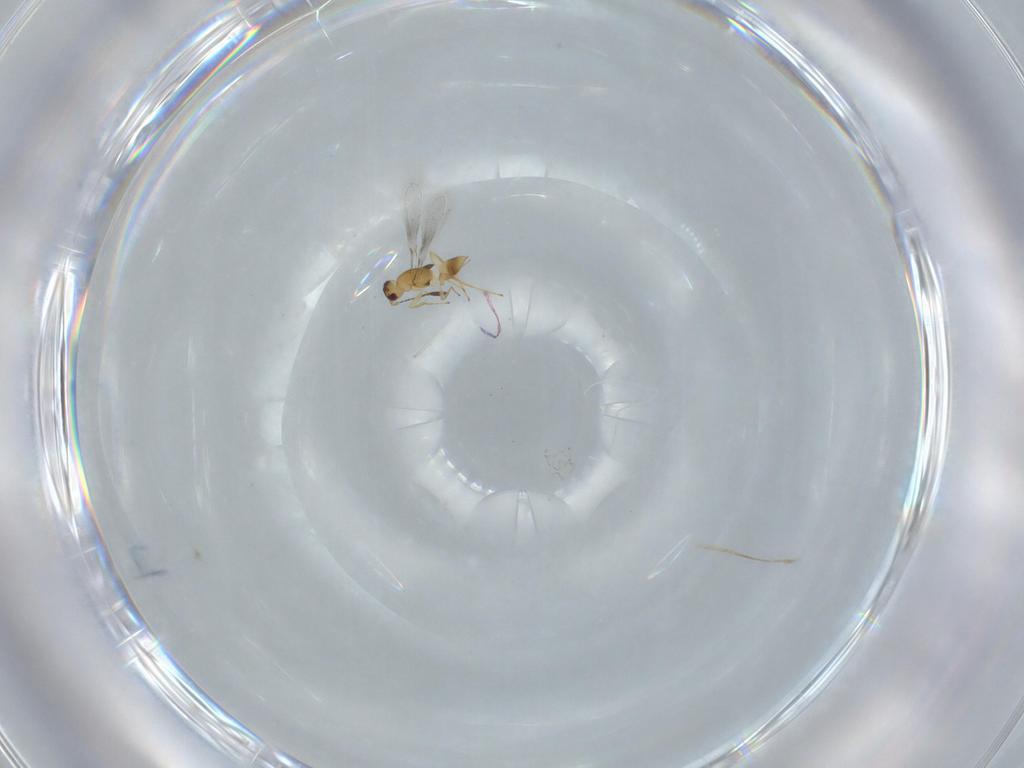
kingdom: Animalia
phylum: Arthropoda
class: Insecta
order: Hymenoptera
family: Mymaridae
